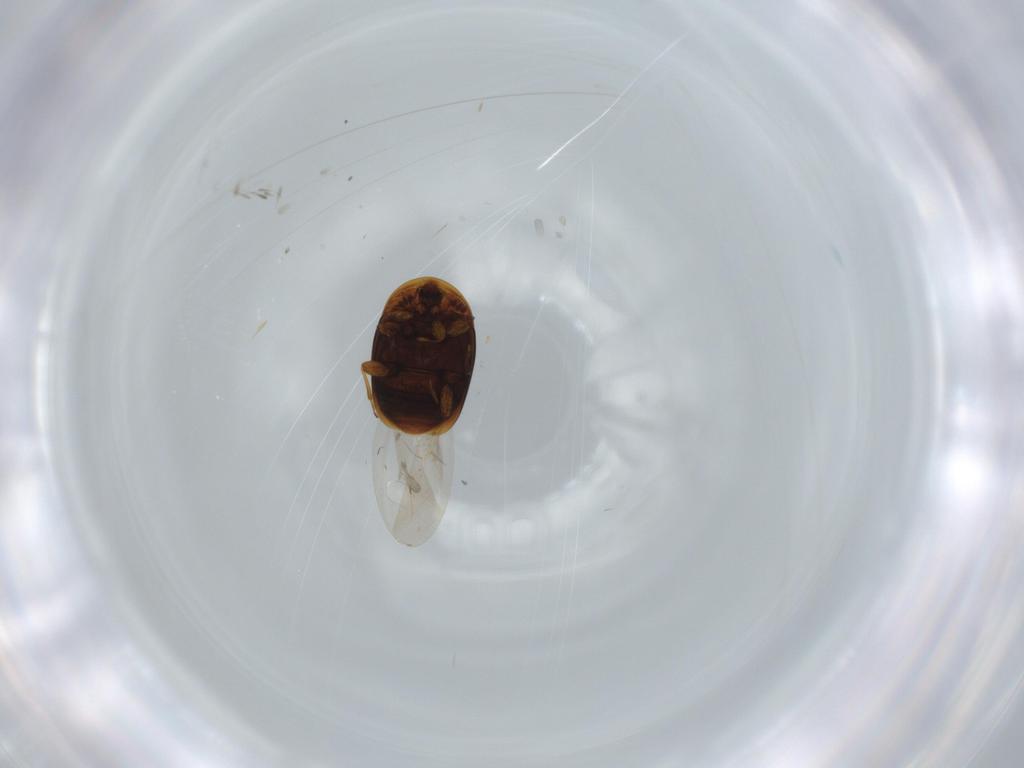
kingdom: Animalia
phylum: Arthropoda
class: Insecta
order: Coleoptera
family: Corylophidae
